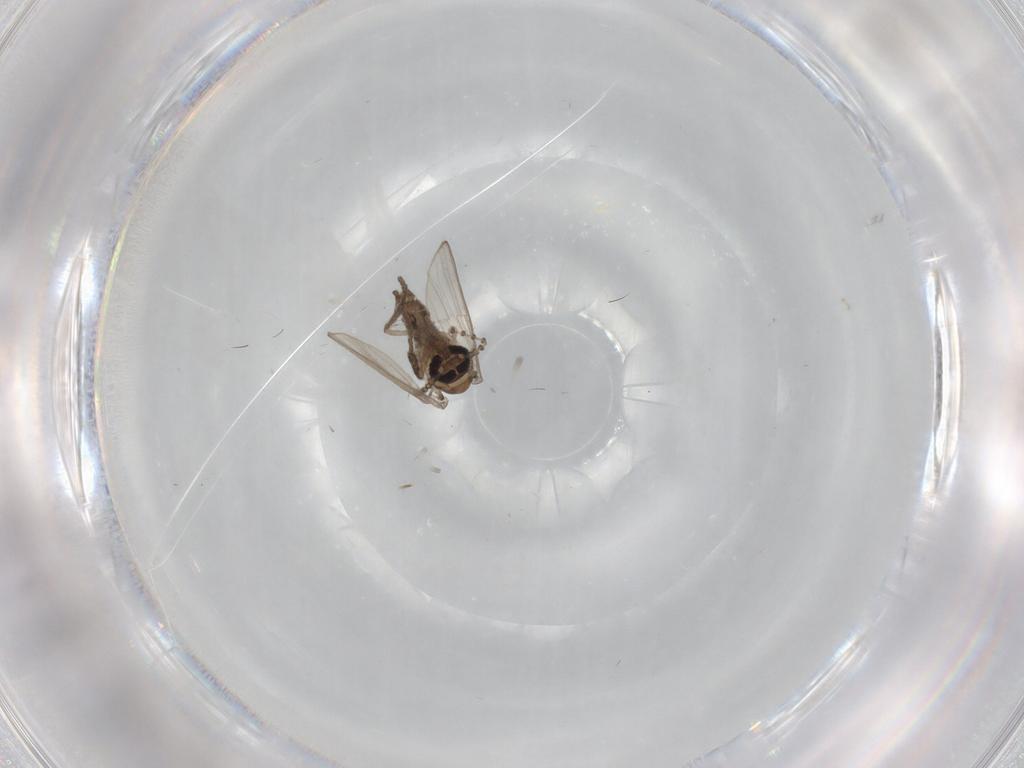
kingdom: Animalia
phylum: Arthropoda
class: Insecta
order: Diptera
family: Psychodidae
